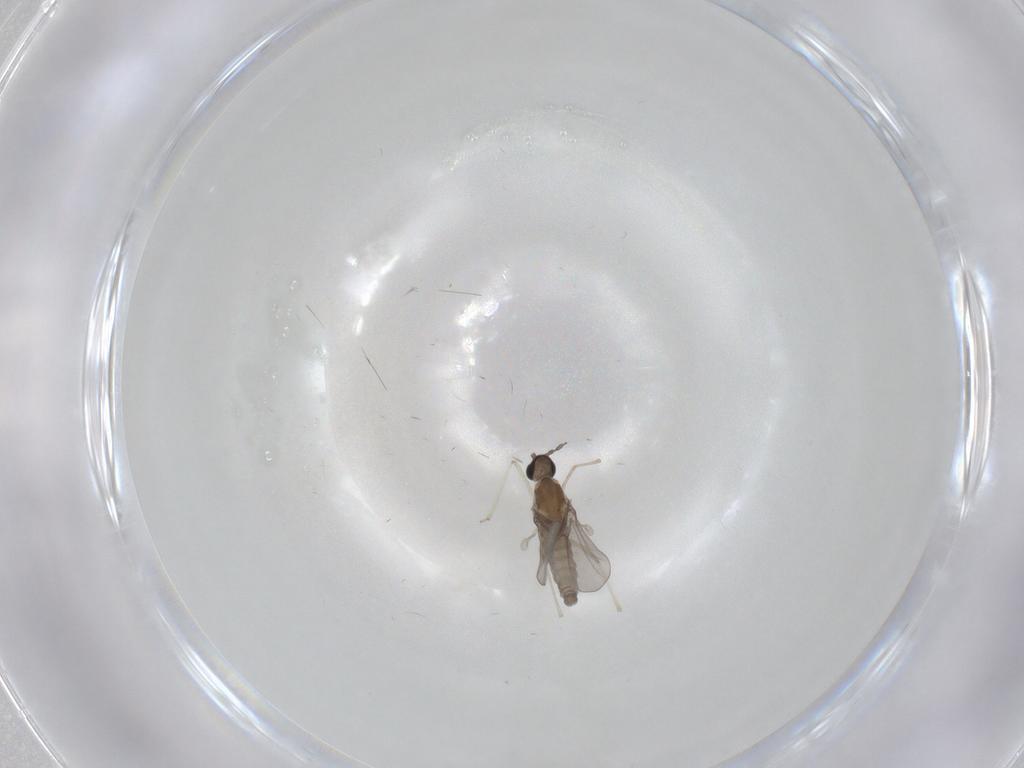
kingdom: Animalia
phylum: Arthropoda
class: Insecta
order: Diptera
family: Cecidomyiidae
